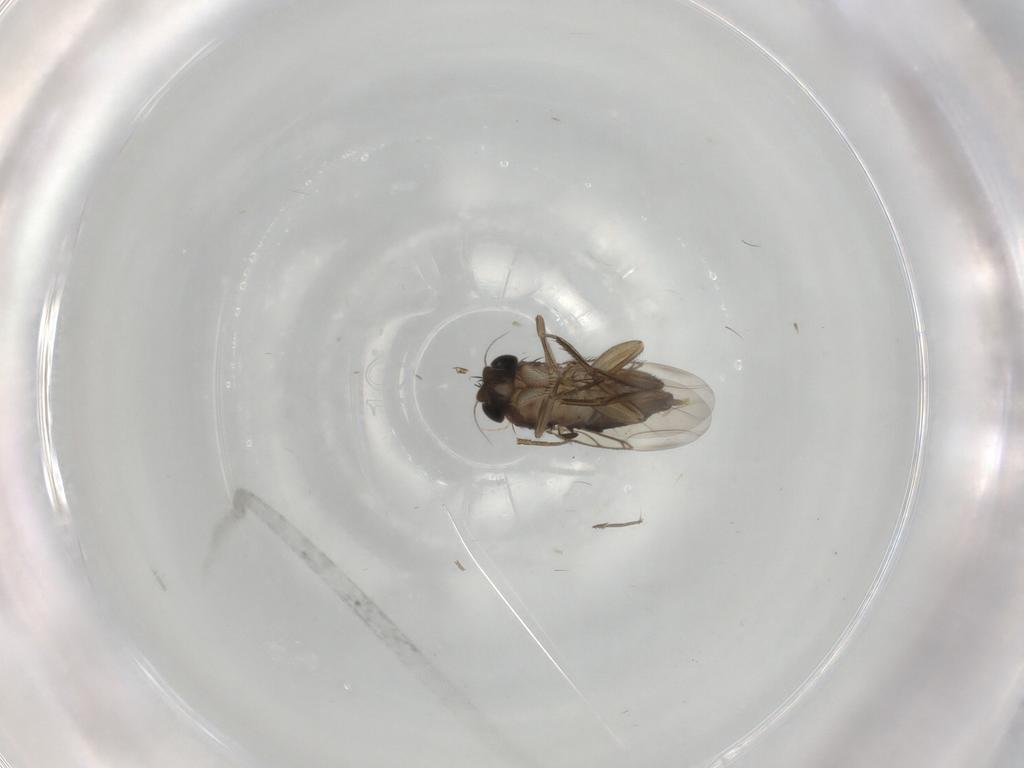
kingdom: Animalia
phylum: Arthropoda
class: Insecta
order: Diptera
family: Phoridae
